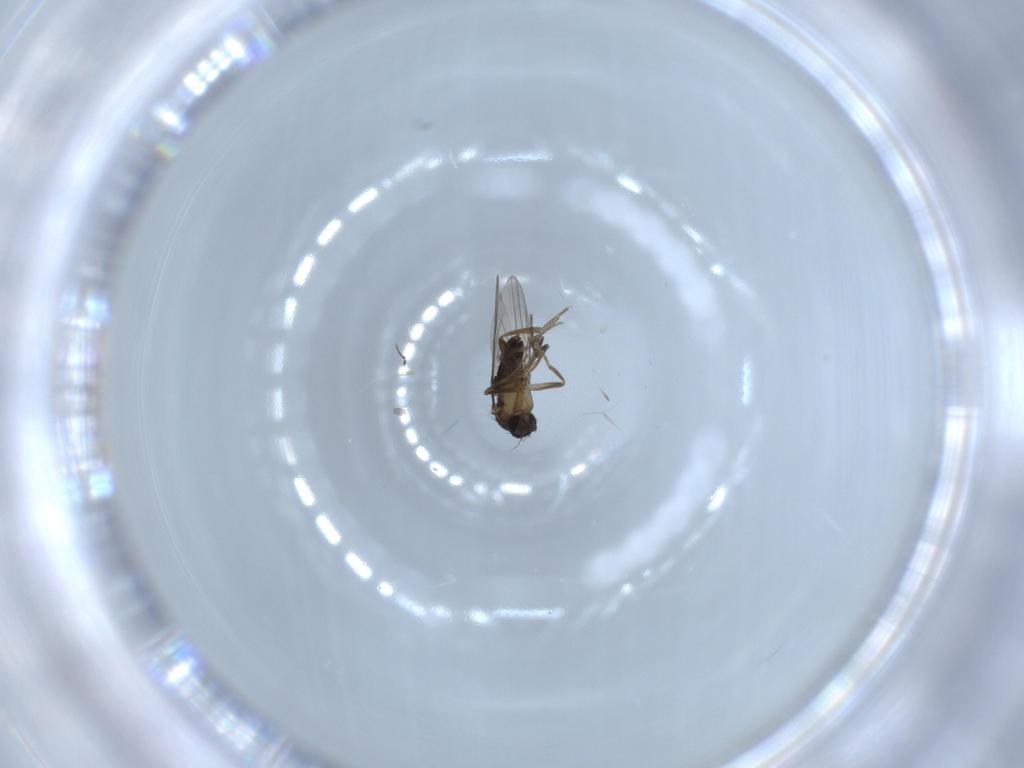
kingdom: Animalia
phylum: Arthropoda
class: Insecta
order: Diptera
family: Phoridae
